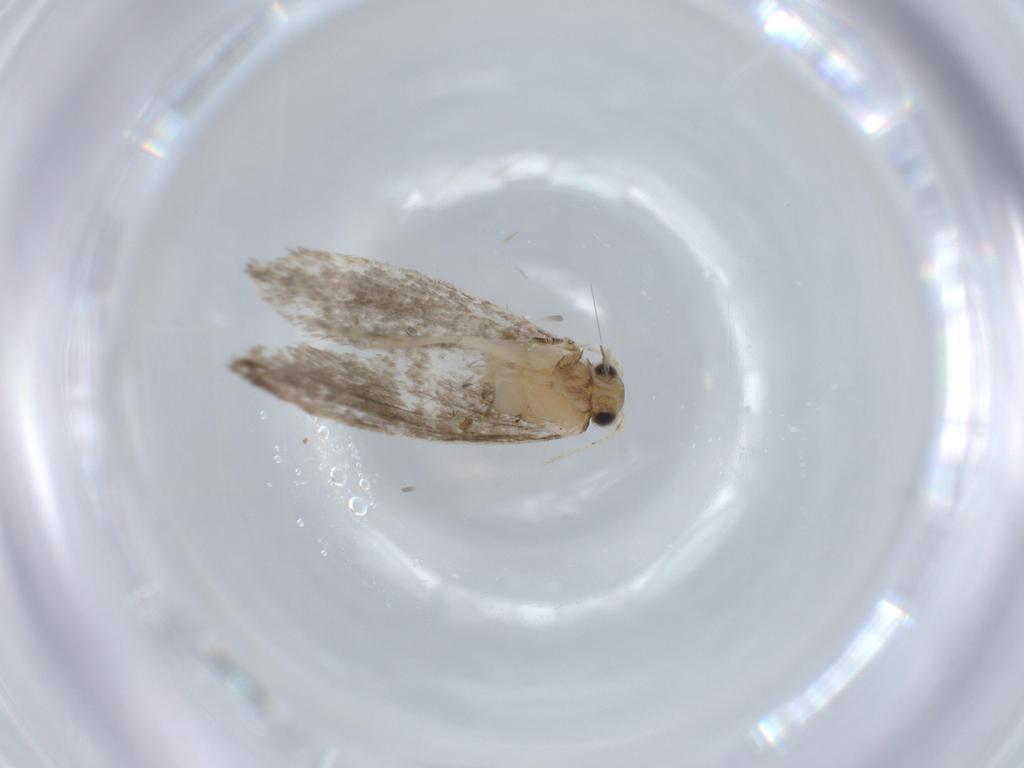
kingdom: Animalia
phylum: Arthropoda
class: Insecta
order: Lepidoptera
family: Tineidae
